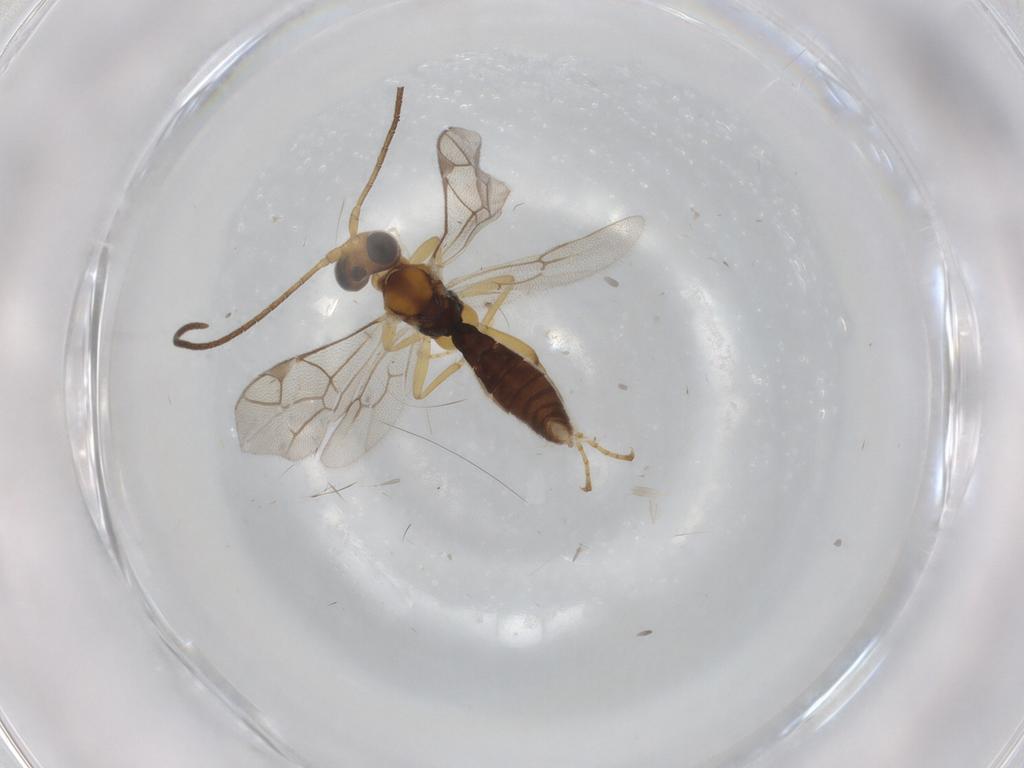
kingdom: Animalia
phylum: Arthropoda
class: Insecta
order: Hymenoptera
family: Ichneumonidae
